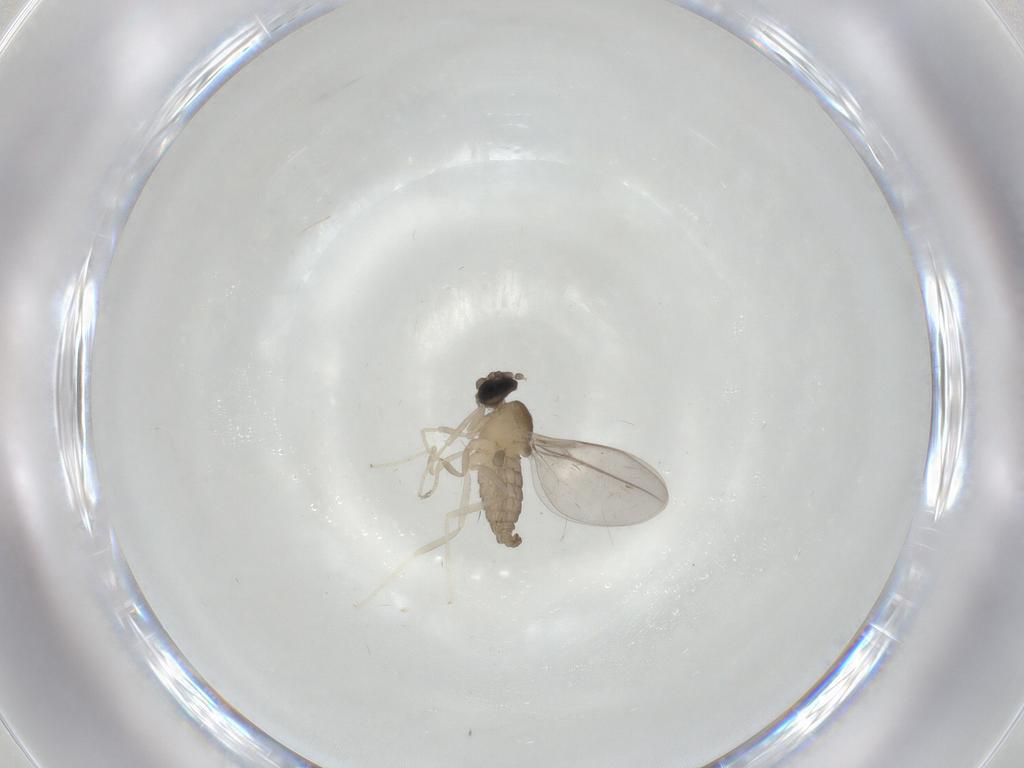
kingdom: Animalia
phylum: Arthropoda
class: Insecta
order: Diptera
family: Cecidomyiidae
